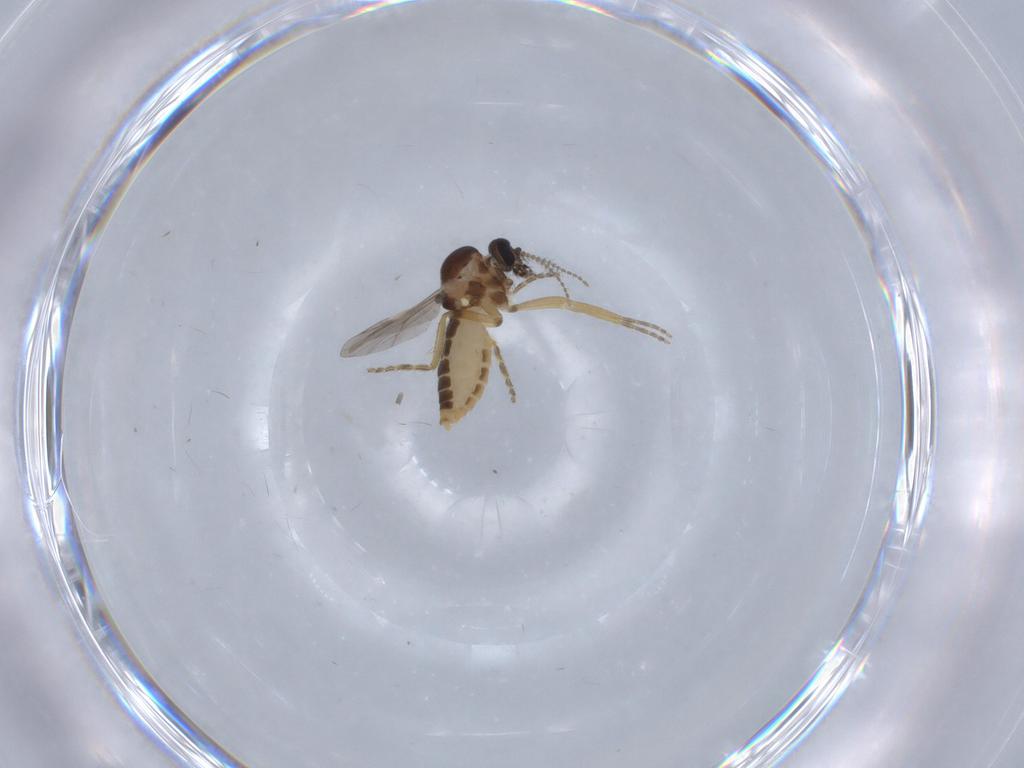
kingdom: Animalia
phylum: Arthropoda
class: Insecta
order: Diptera
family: Ceratopogonidae
